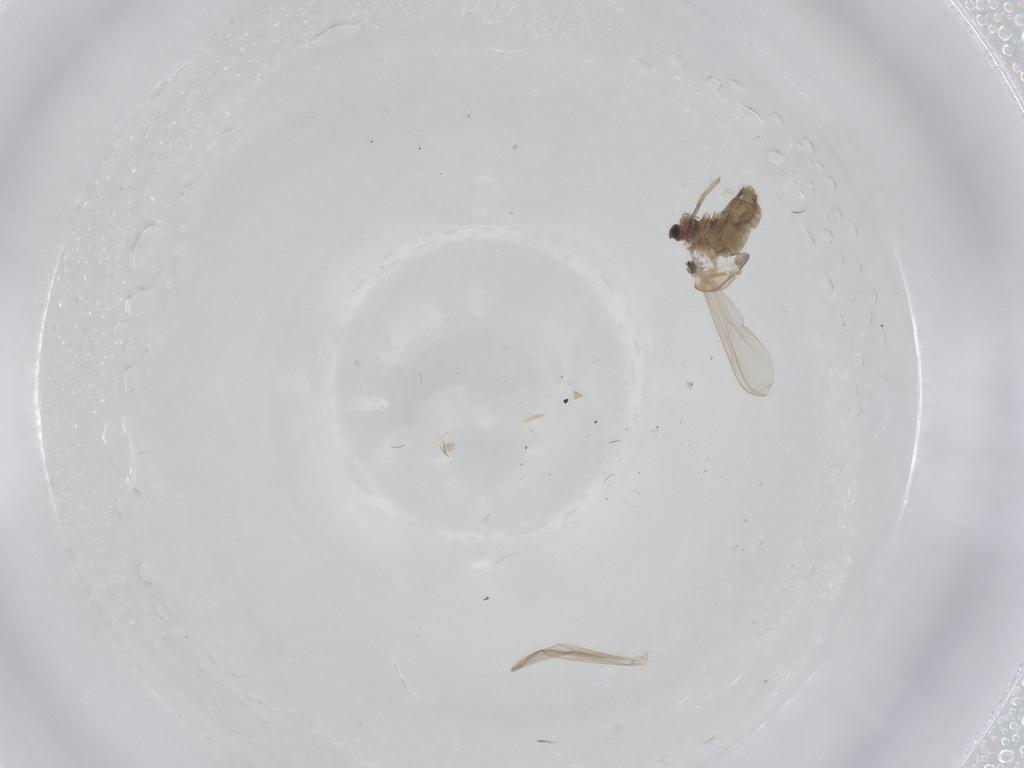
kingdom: Animalia
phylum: Arthropoda
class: Insecta
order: Diptera
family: Chironomidae
